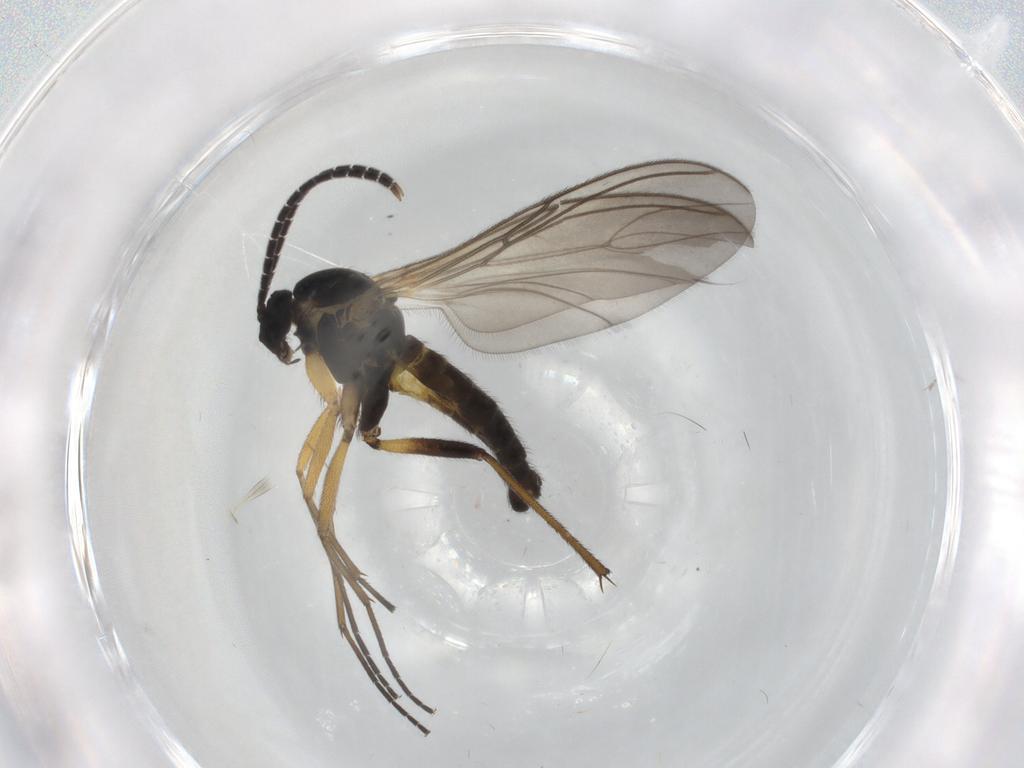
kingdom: Animalia
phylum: Arthropoda
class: Insecta
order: Diptera
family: Sciaridae
